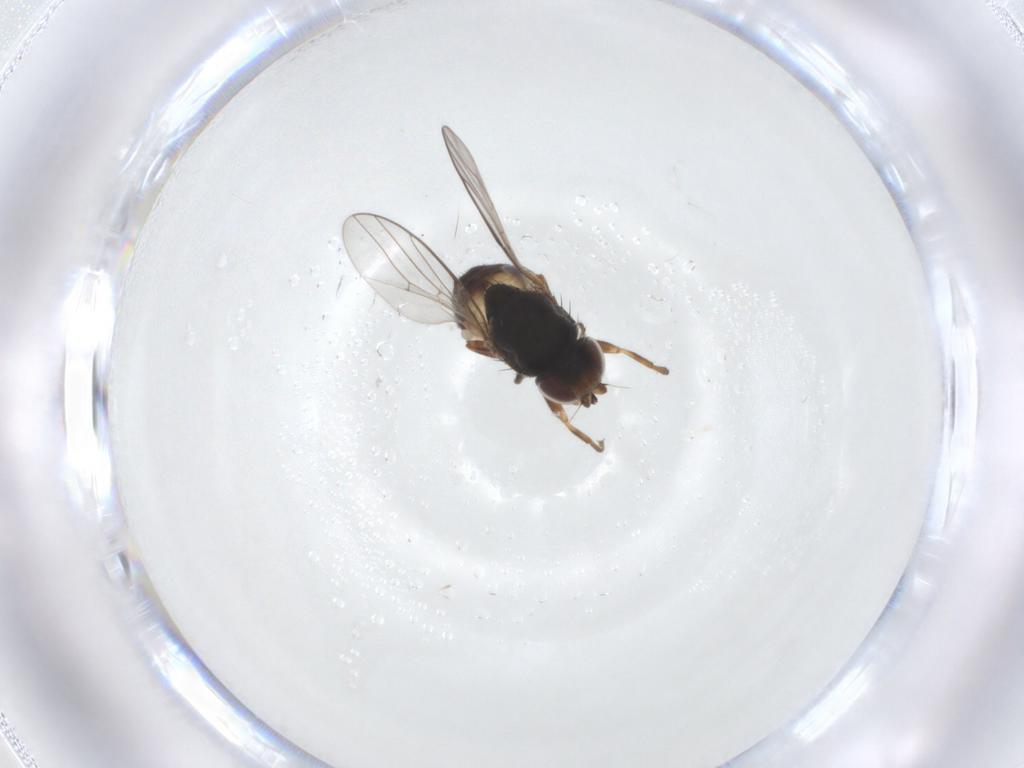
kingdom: Animalia
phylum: Arthropoda
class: Insecta
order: Diptera
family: Chloropidae
